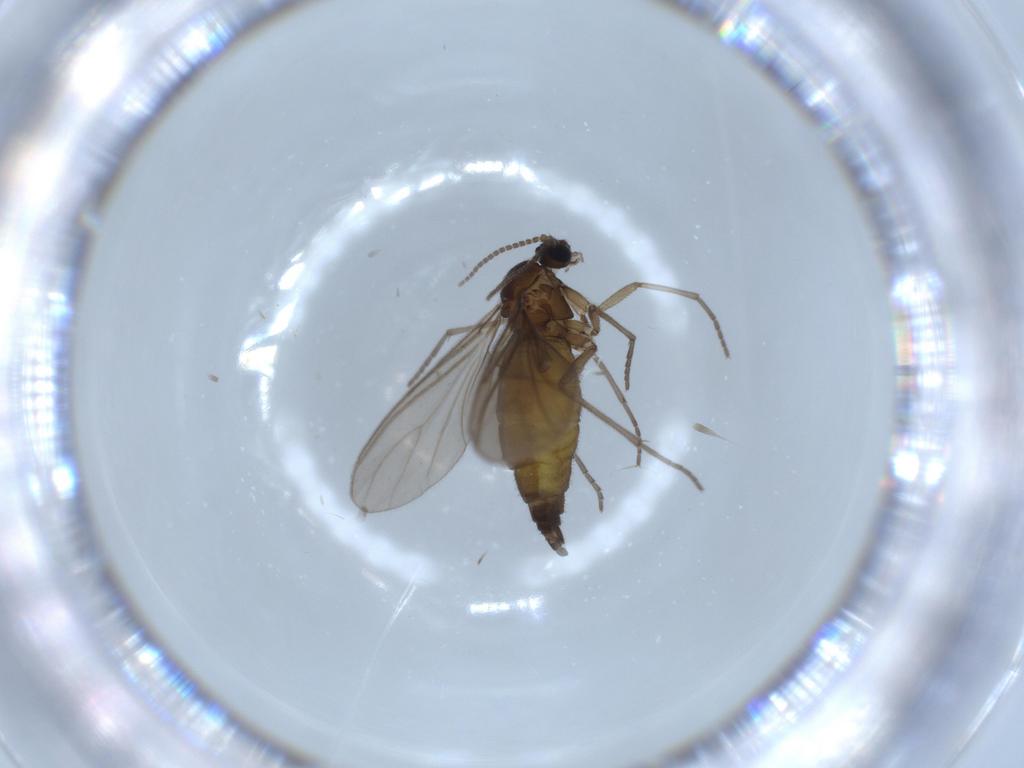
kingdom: Animalia
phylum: Arthropoda
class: Insecta
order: Diptera
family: Sciaridae
